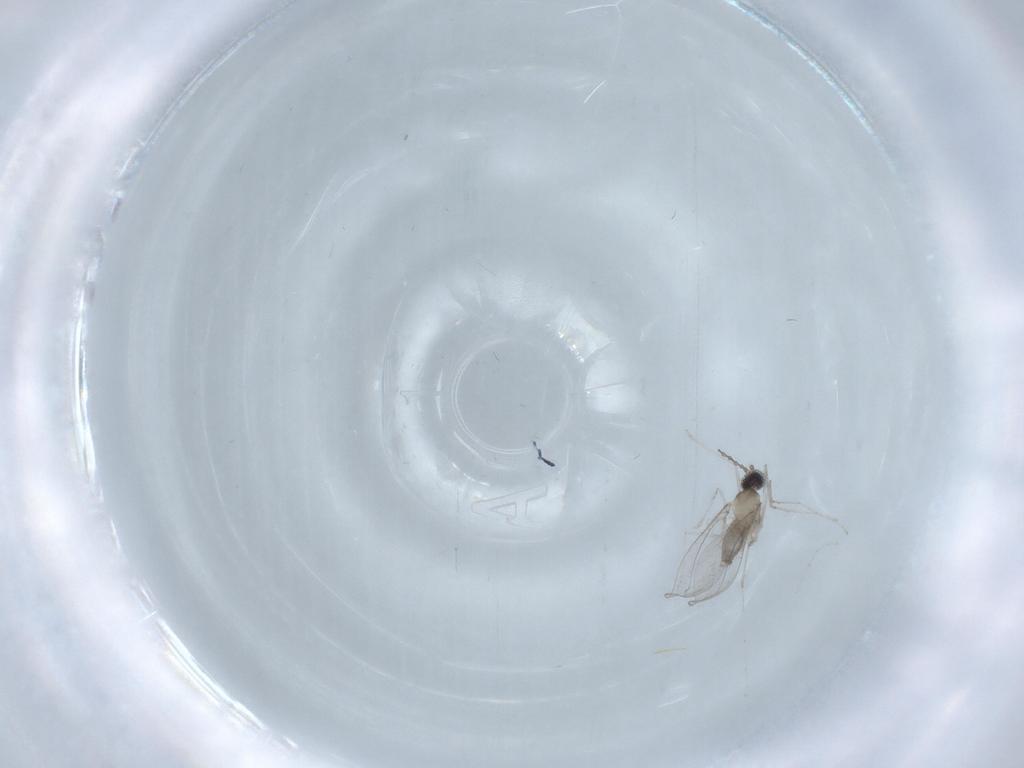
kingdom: Animalia
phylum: Arthropoda
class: Insecta
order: Diptera
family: Cecidomyiidae
